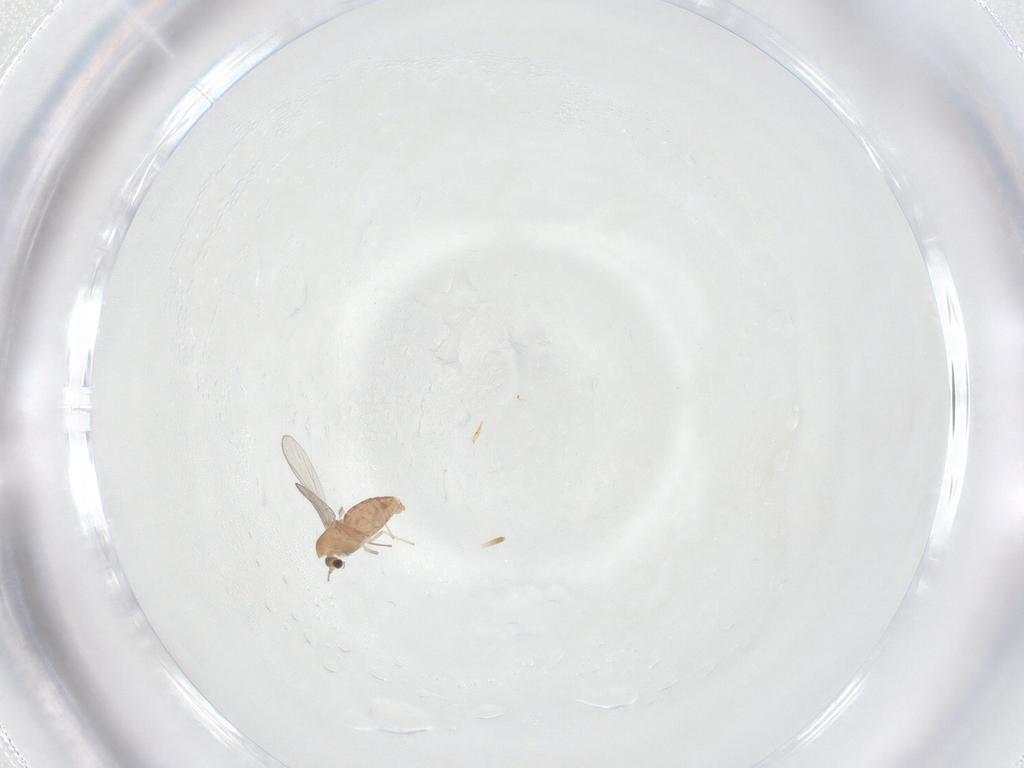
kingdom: Animalia
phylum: Arthropoda
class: Insecta
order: Diptera
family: Chironomidae
